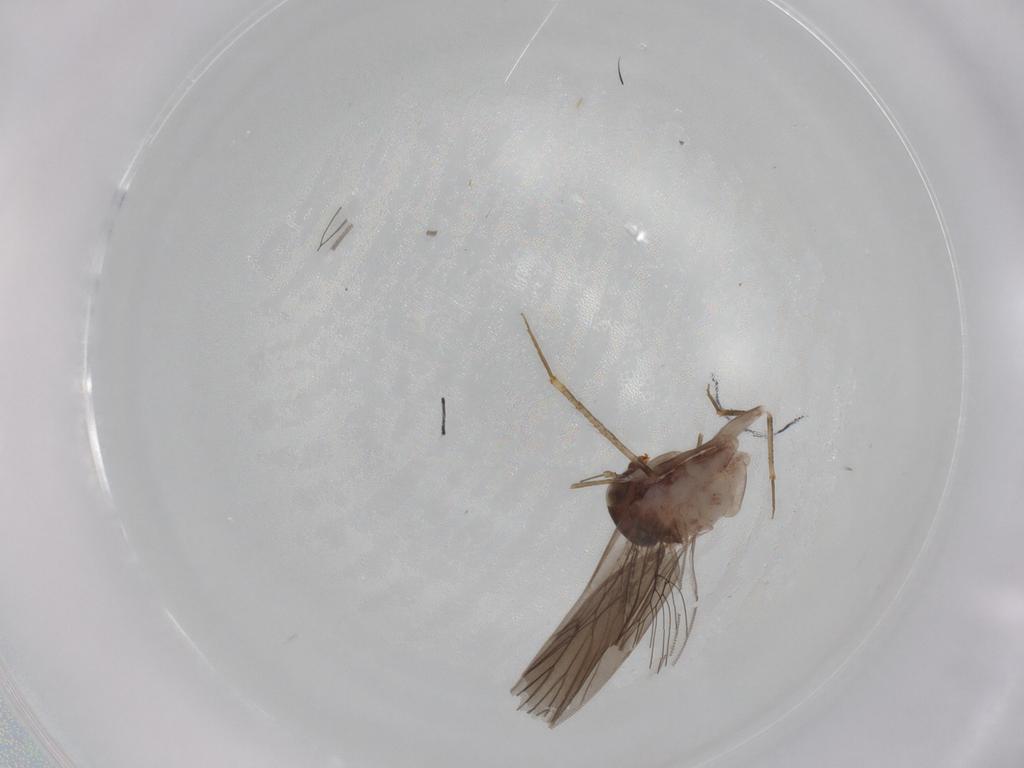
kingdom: Animalia
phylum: Arthropoda
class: Insecta
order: Psocodea
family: Lepidopsocidae
